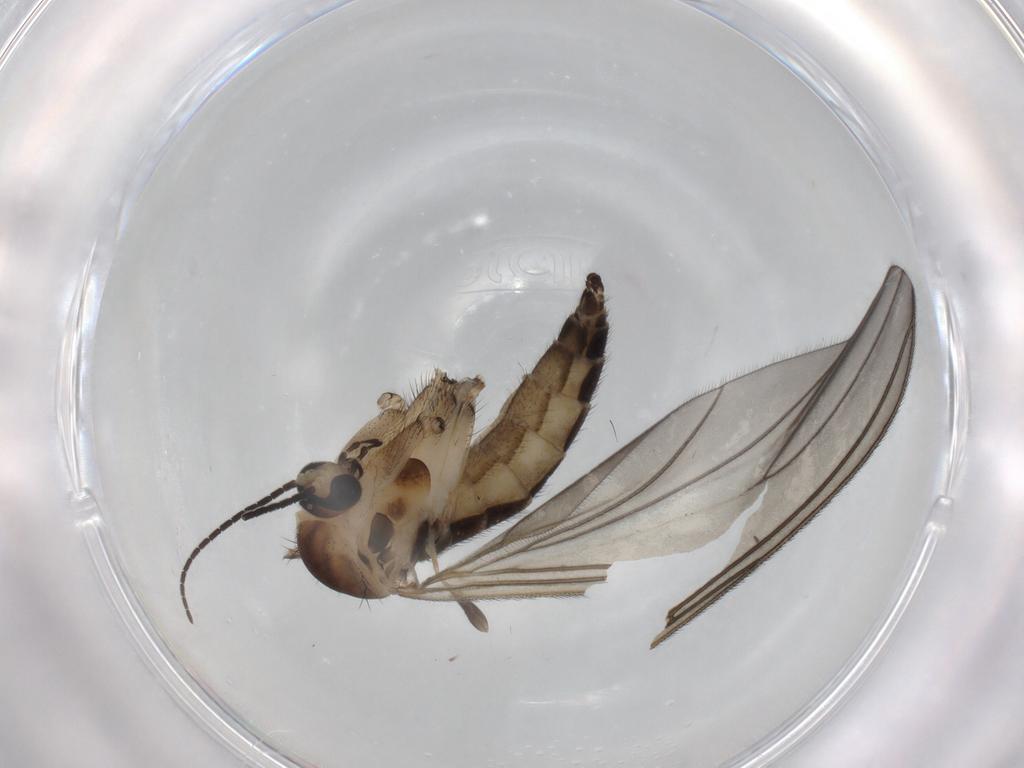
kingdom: Animalia
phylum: Arthropoda
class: Insecta
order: Diptera
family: Sciaridae
